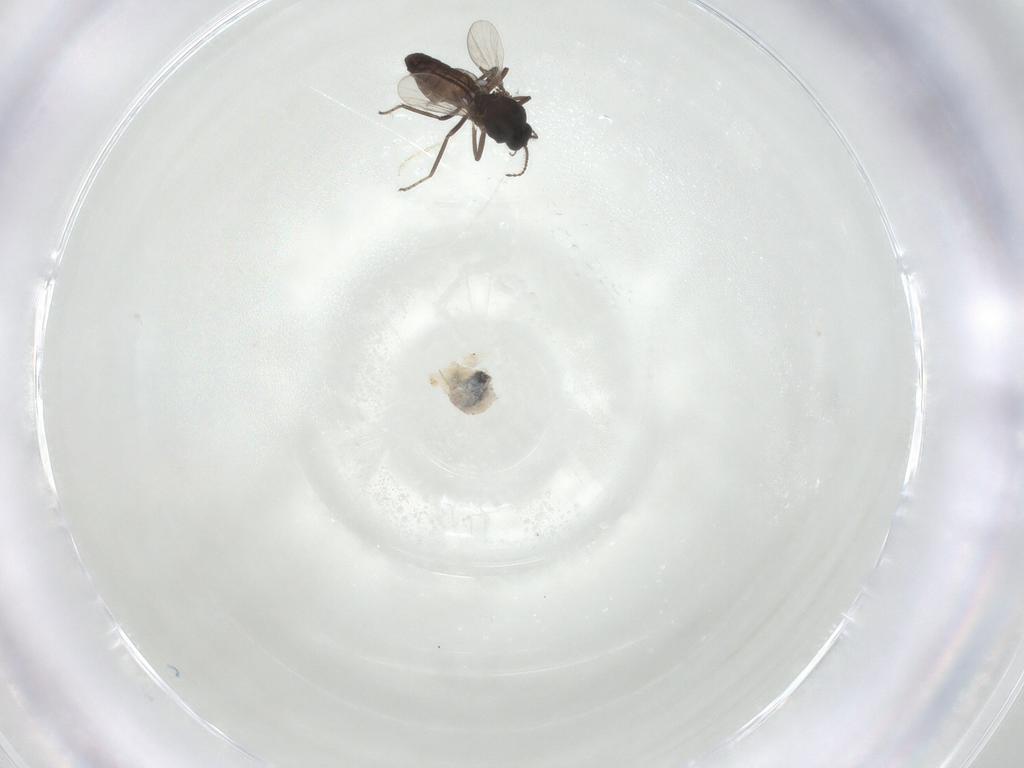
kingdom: Animalia
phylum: Arthropoda
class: Insecta
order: Diptera
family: Ceratopogonidae
